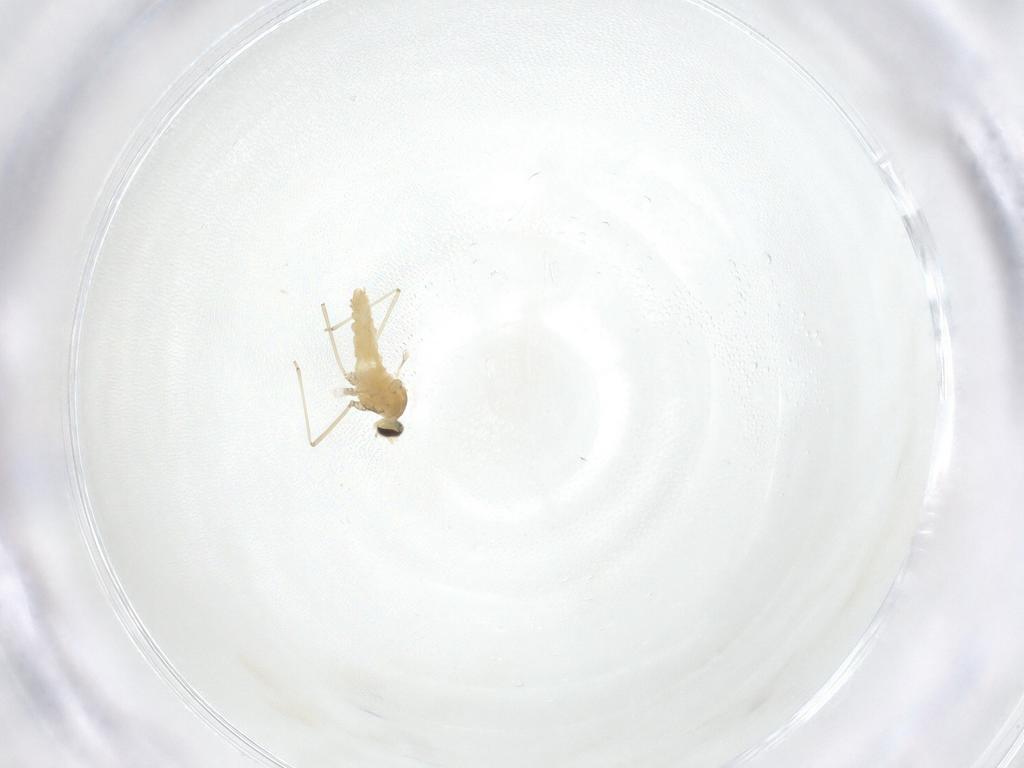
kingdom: Animalia
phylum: Arthropoda
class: Insecta
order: Diptera
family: Cecidomyiidae
